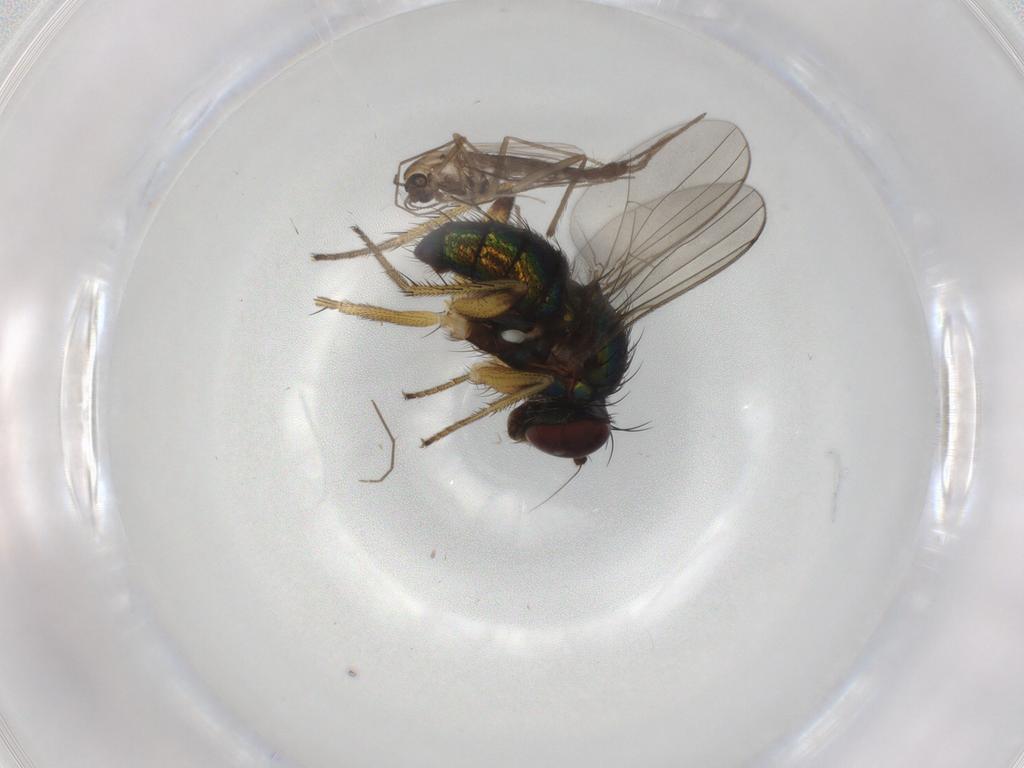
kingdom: Animalia
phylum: Arthropoda
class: Insecta
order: Diptera
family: Dolichopodidae
